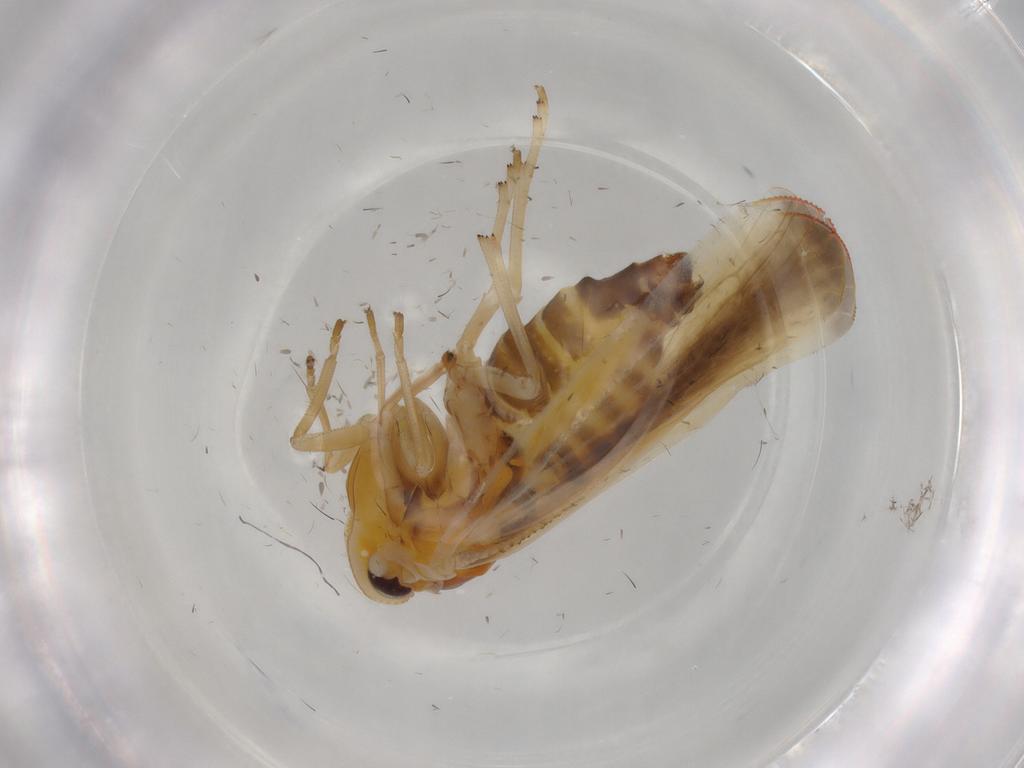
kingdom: Animalia
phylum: Arthropoda
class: Insecta
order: Hemiptera
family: Derbidae
